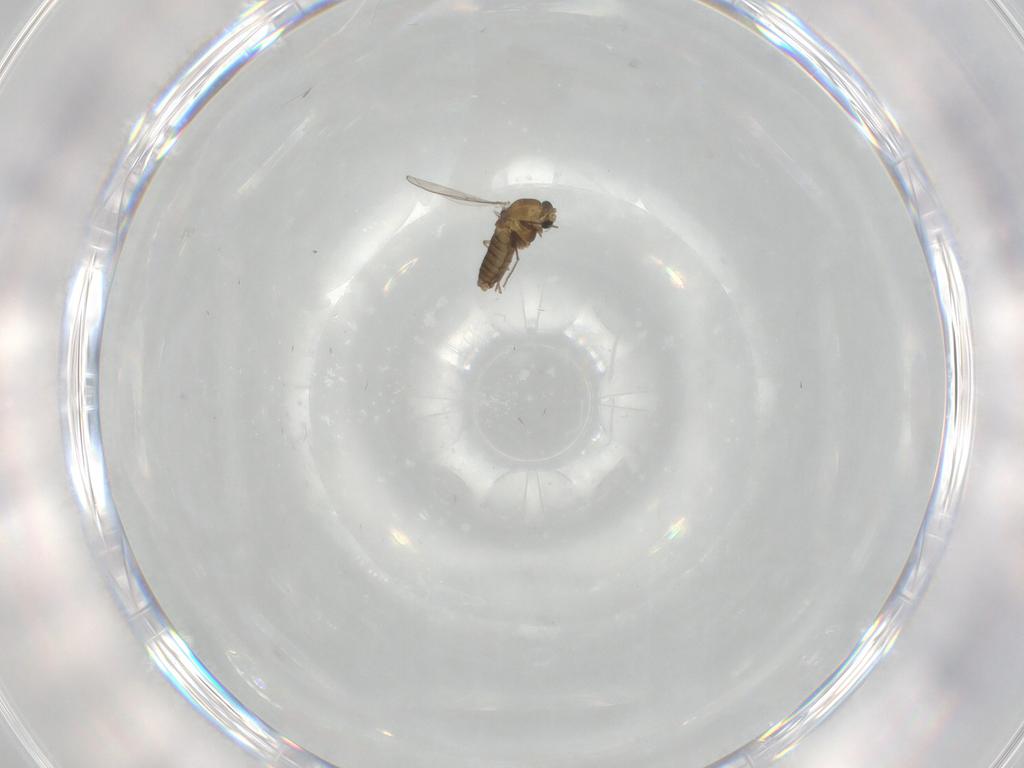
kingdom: Animalia
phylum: Arthropoda
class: Insecta
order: Diptera
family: Chironomidae
